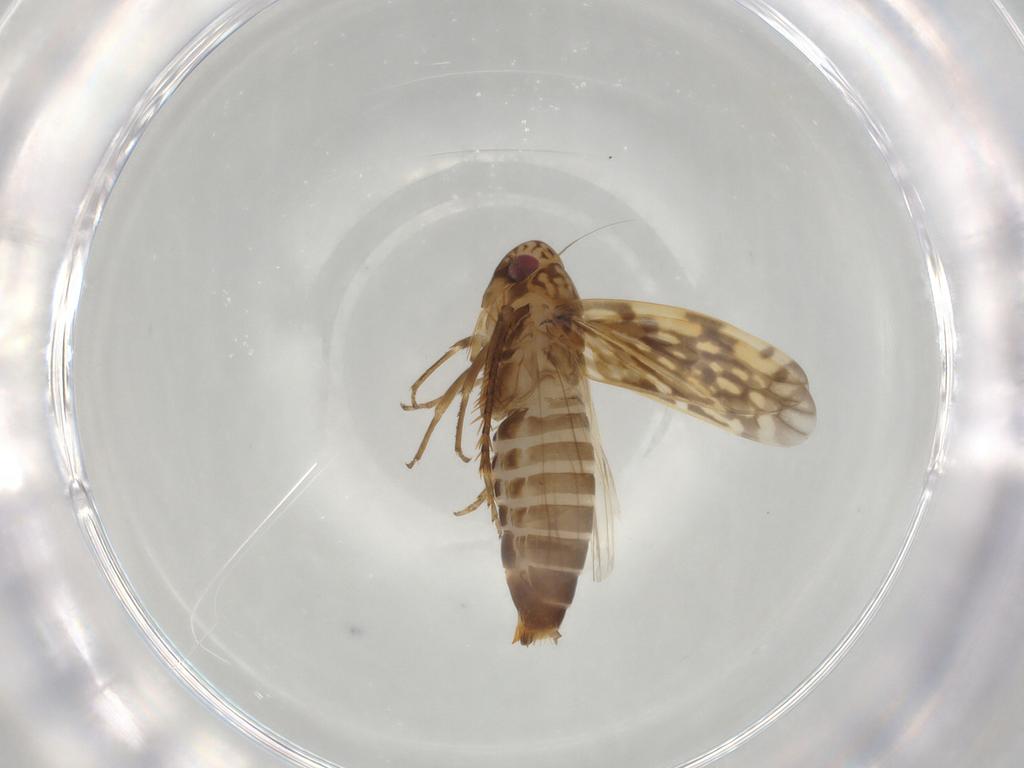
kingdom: Animalia
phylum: Arthropoda
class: Insecta
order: Hemiptera
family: Cicadellidae
